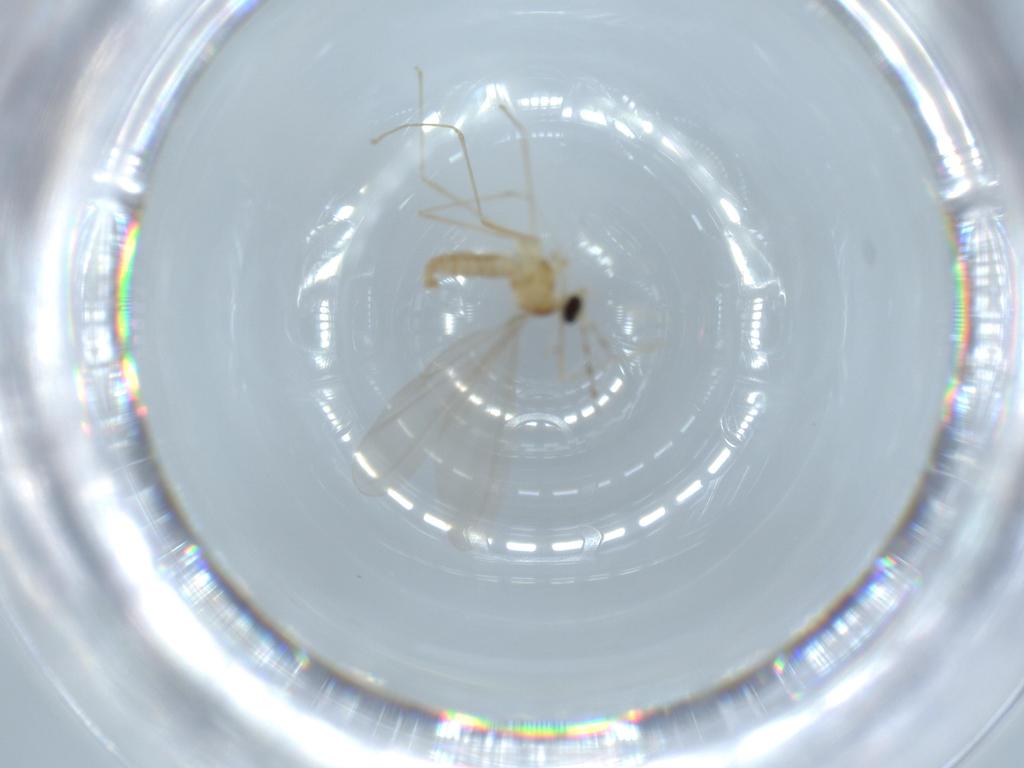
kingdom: Animalia
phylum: Arthropoda
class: Insecta
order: Diptera
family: Cecidomyiidae
